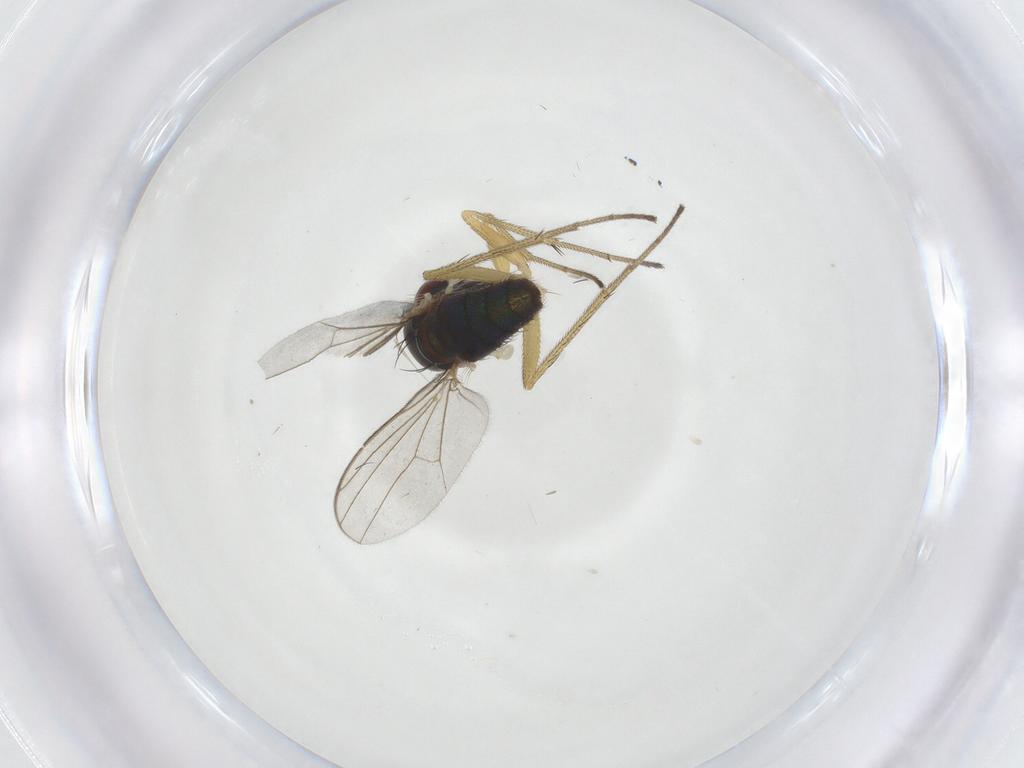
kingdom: Animalia
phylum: Arthropoda
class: Insecta
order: Diptera
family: Dolichopodidae
